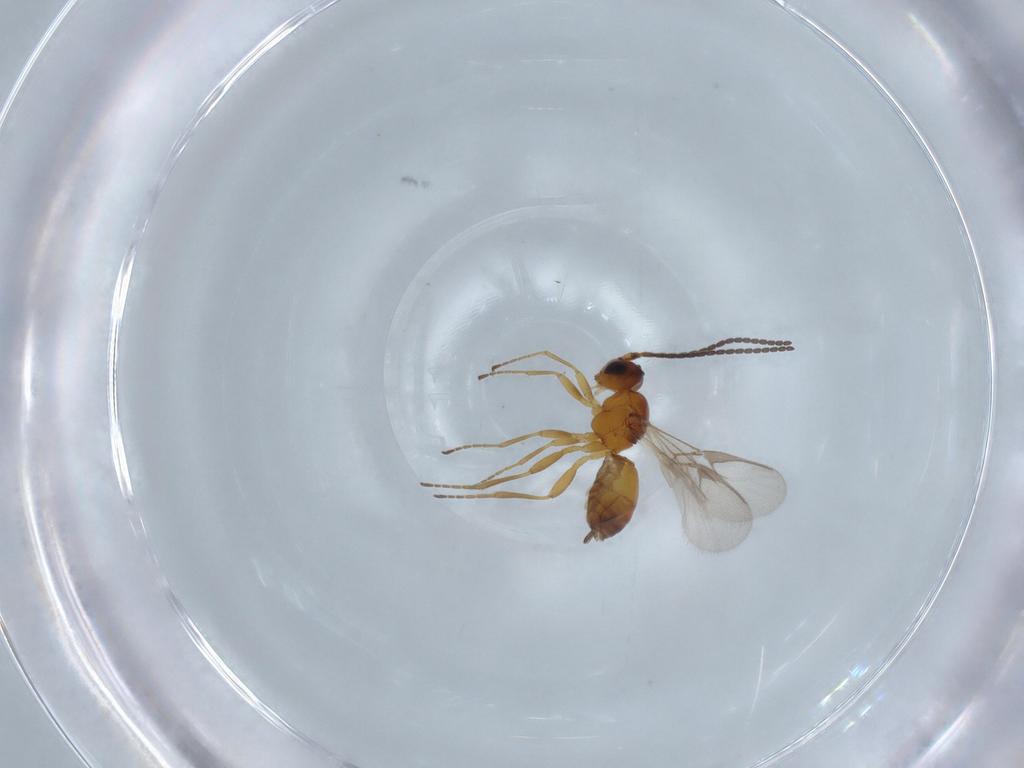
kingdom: Animalia
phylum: Arthropoda
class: Insecta
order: Hymenoptera
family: Braconidae
